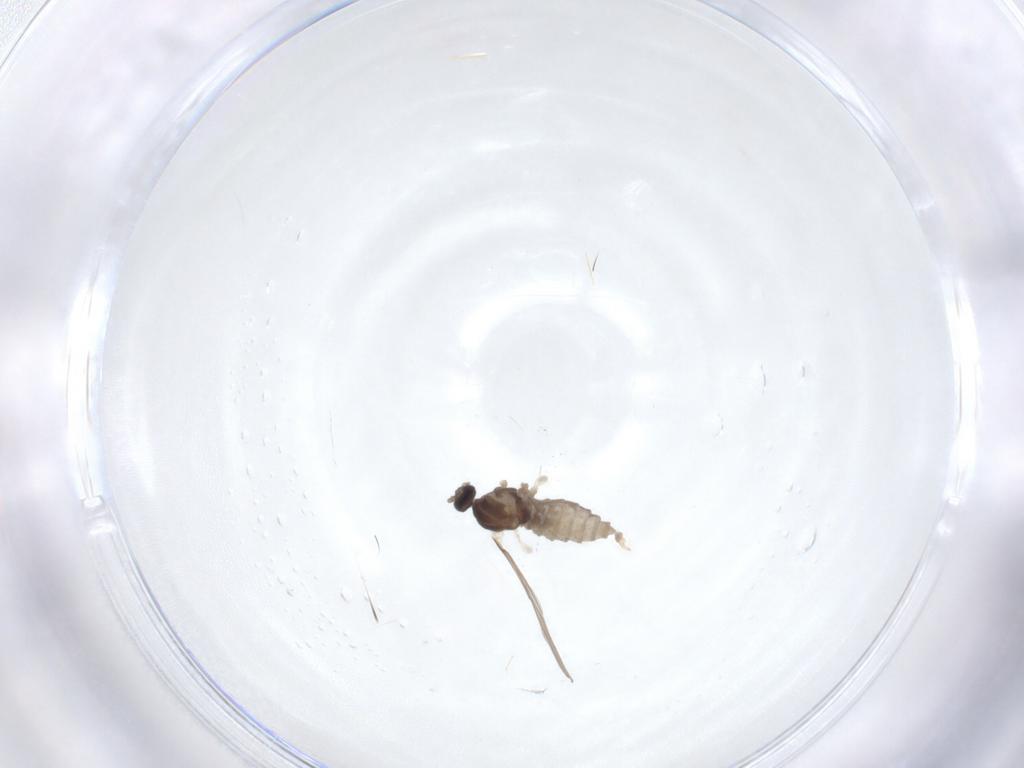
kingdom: Animalia
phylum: Arthropoda
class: Insecta
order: Diptera
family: Cecidomyiidae
